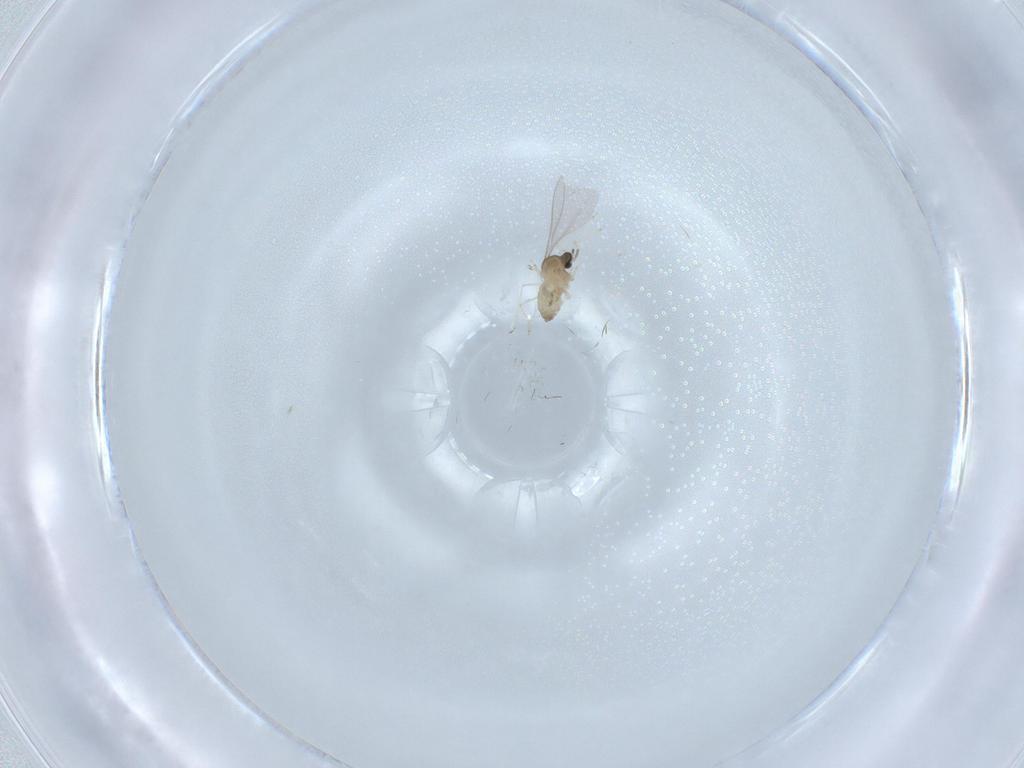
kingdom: Animalia
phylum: Arthropoda
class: Insecta
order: Diptera
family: Cecidomyiidae
